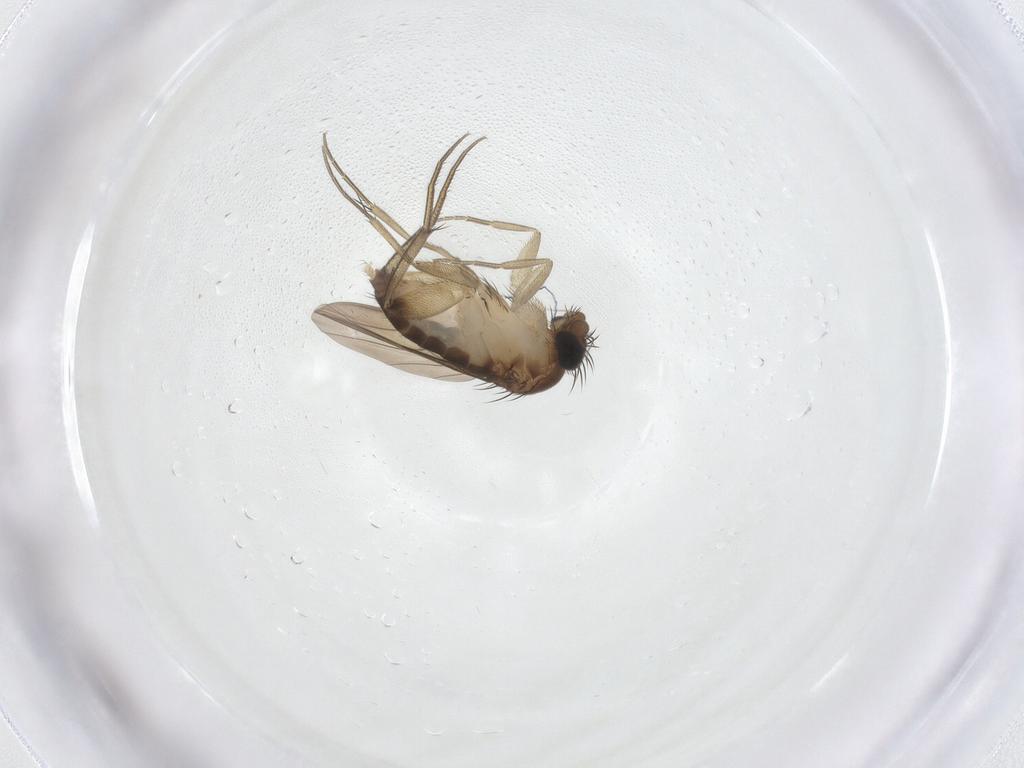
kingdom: Animalia
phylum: Arthropoda
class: Insecta
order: Diptera
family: Phoridae
